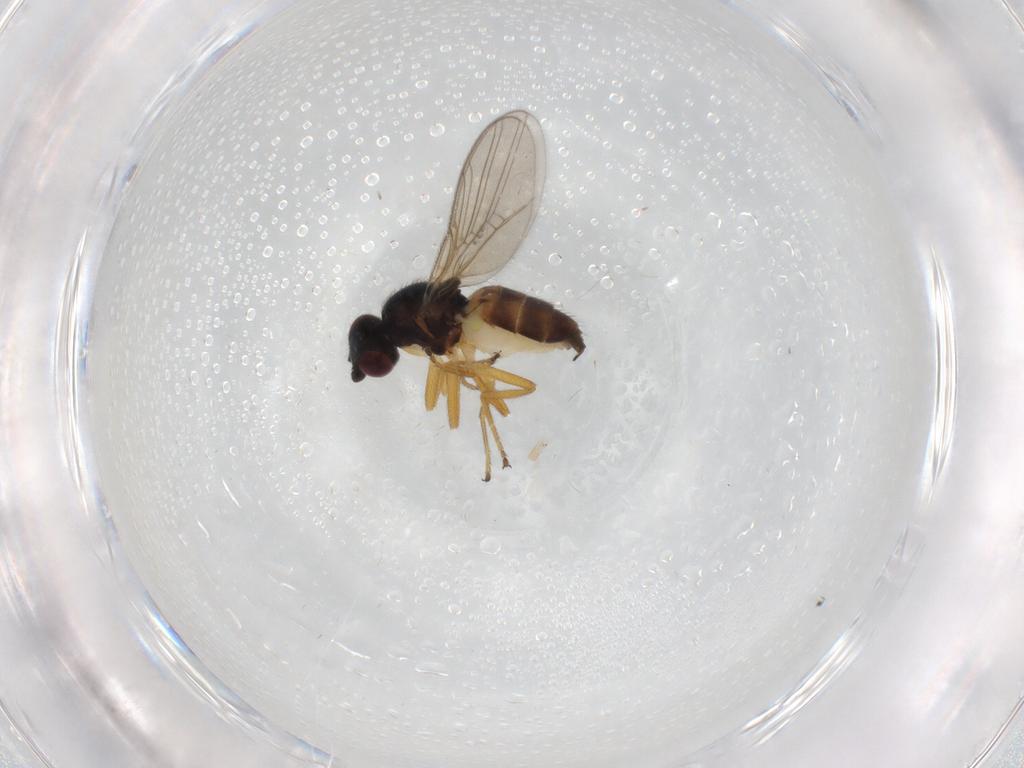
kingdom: Animalia
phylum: Arthropoda
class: Insecta
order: Diptera
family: Chloropidae
